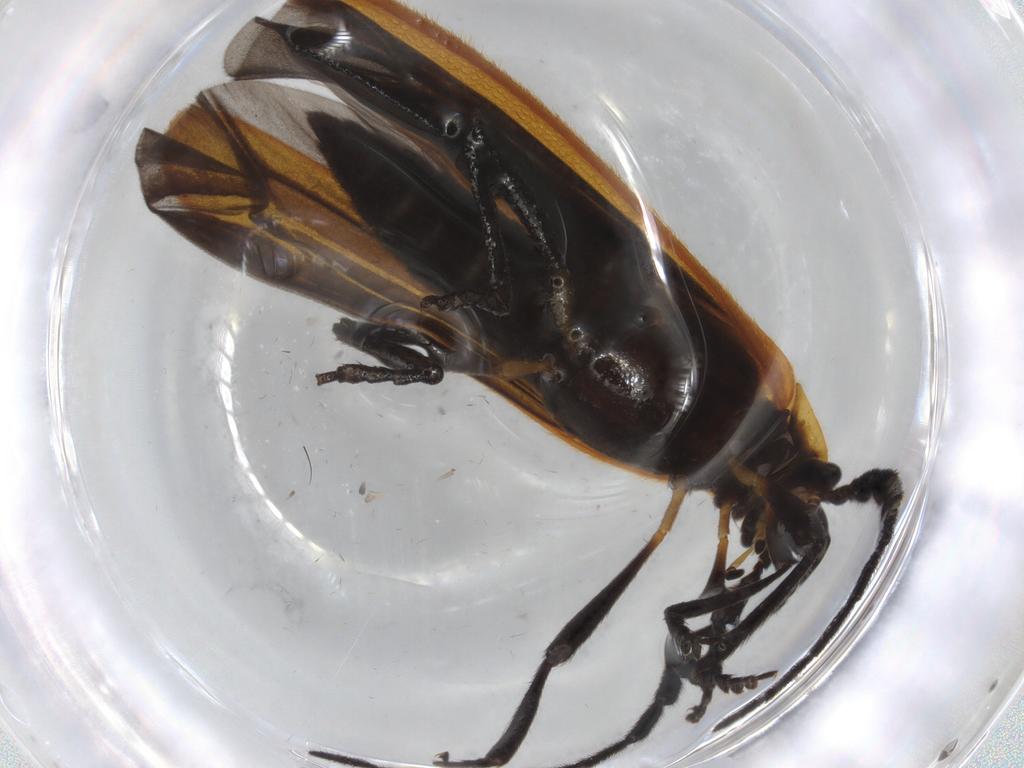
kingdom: Animalia
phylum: Arthropoda
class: Insecta
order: Coleoptera
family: Lycidae
